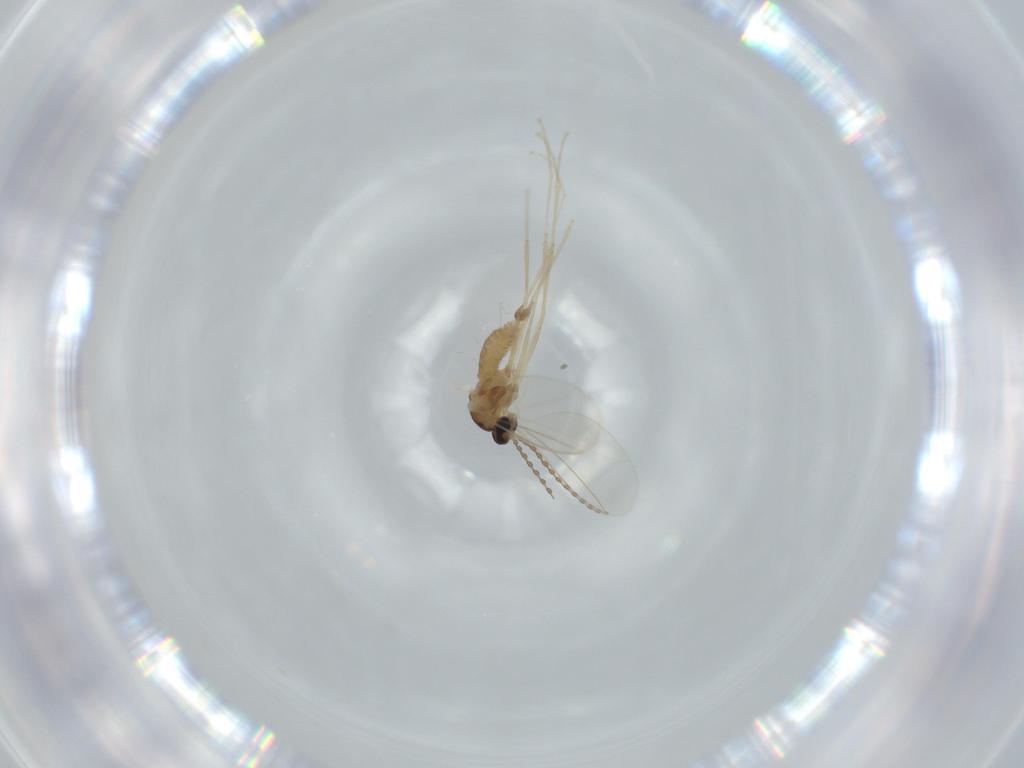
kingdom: Animalia
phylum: Arthropoda
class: Insecta
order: Diptera
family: Cecidomyiidae
